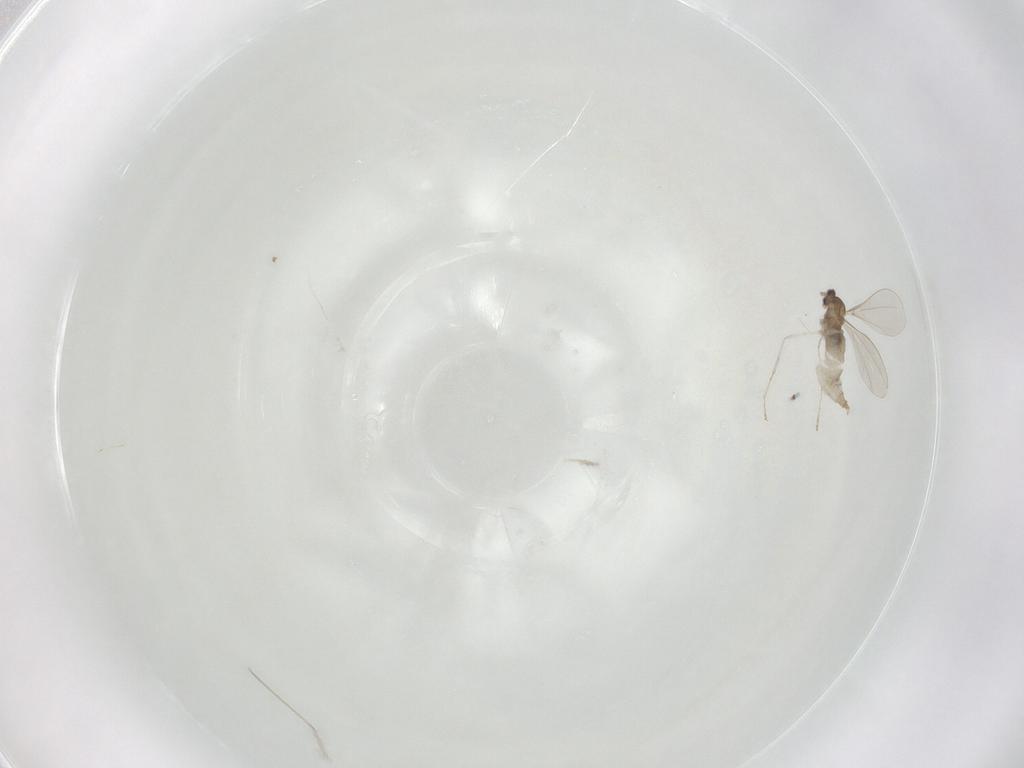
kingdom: Animalia
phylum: Arthropoda
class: Insecta
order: Diptera
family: Cecidomyiidae
